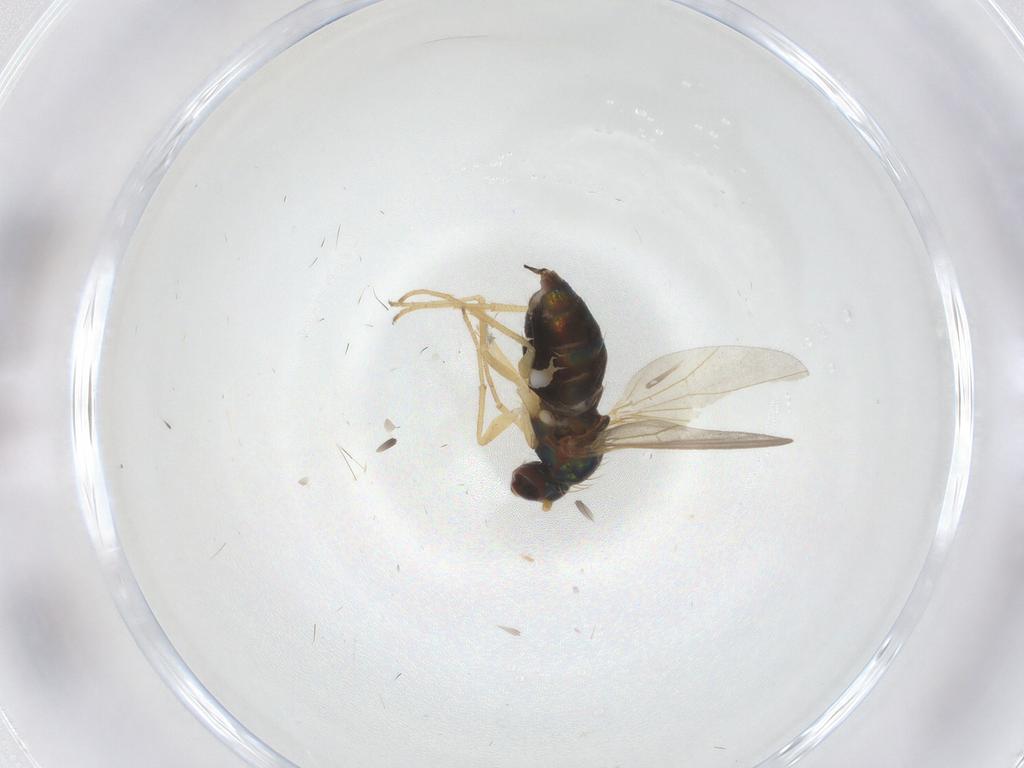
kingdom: Animalia
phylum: Arthropoda
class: Insecta
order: Diptera
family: Dolichopodidae
